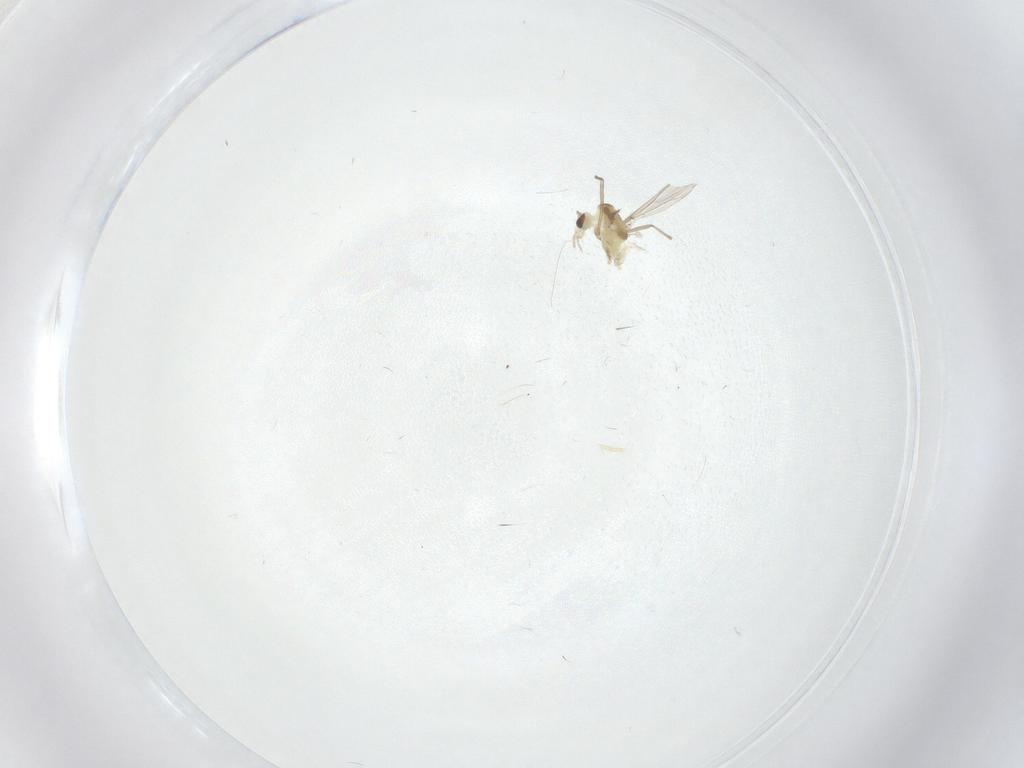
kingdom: Animalia
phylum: Arthropoda
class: Insecta
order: Diptera
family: Chironomidae
